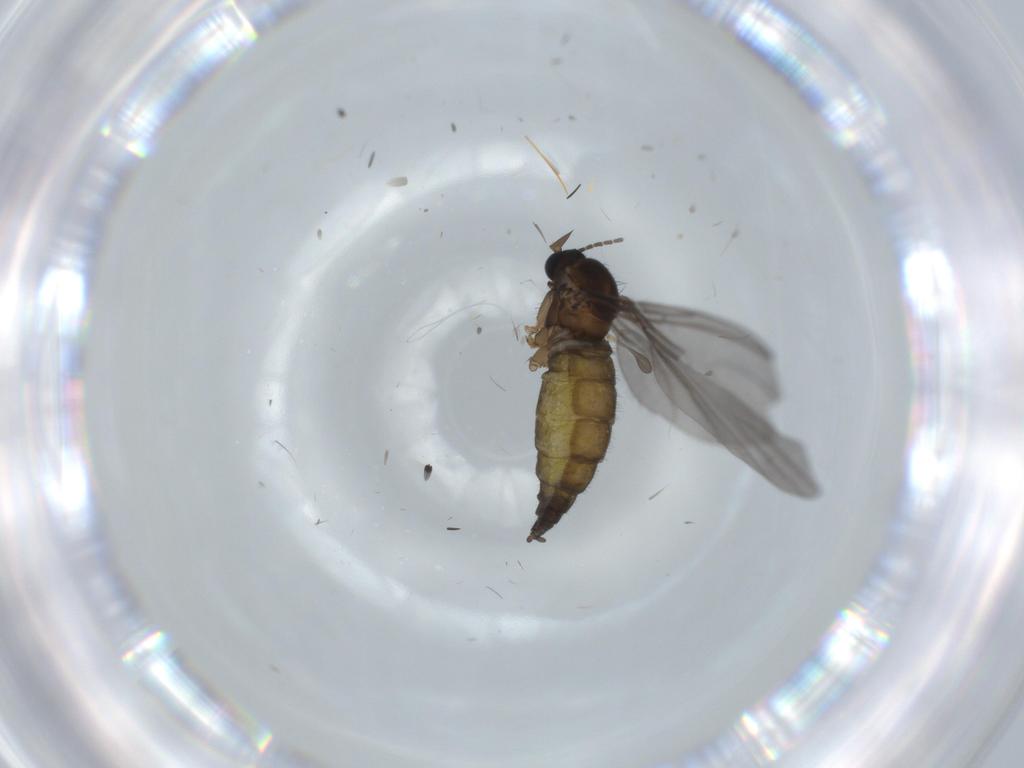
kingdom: Animalia
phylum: Arthropoda
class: Insecta
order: Diptera
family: Sciaridae
